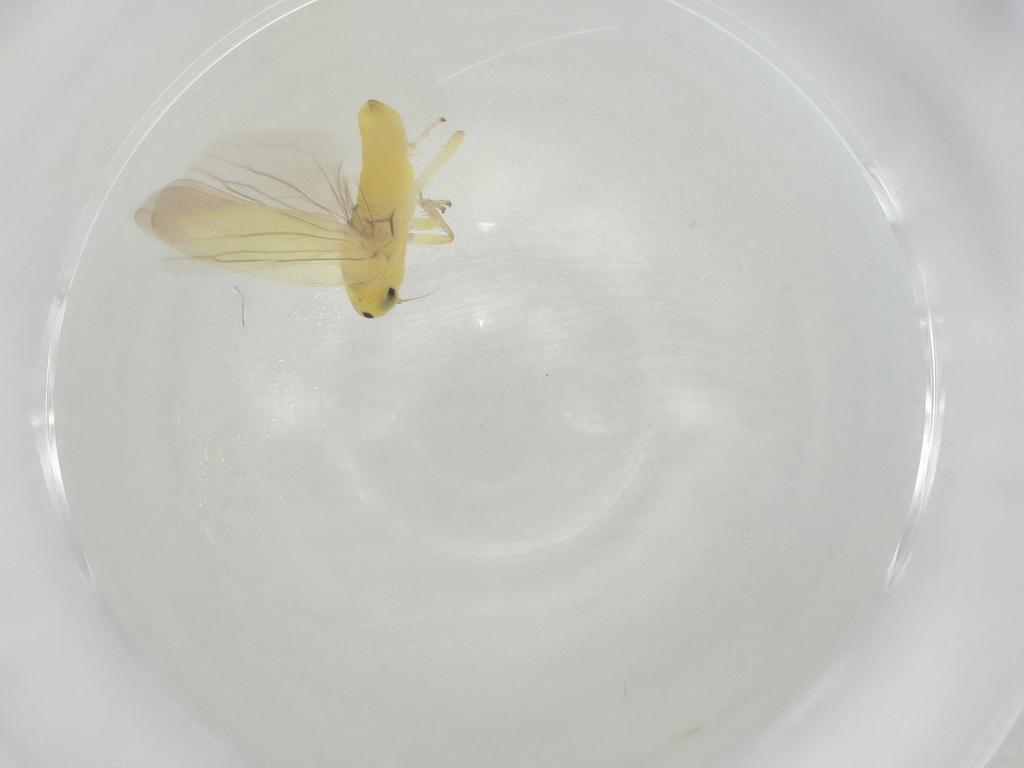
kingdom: Animalia
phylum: Arthropoda
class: Insecta
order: Hemiptera
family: Cicadellidae
